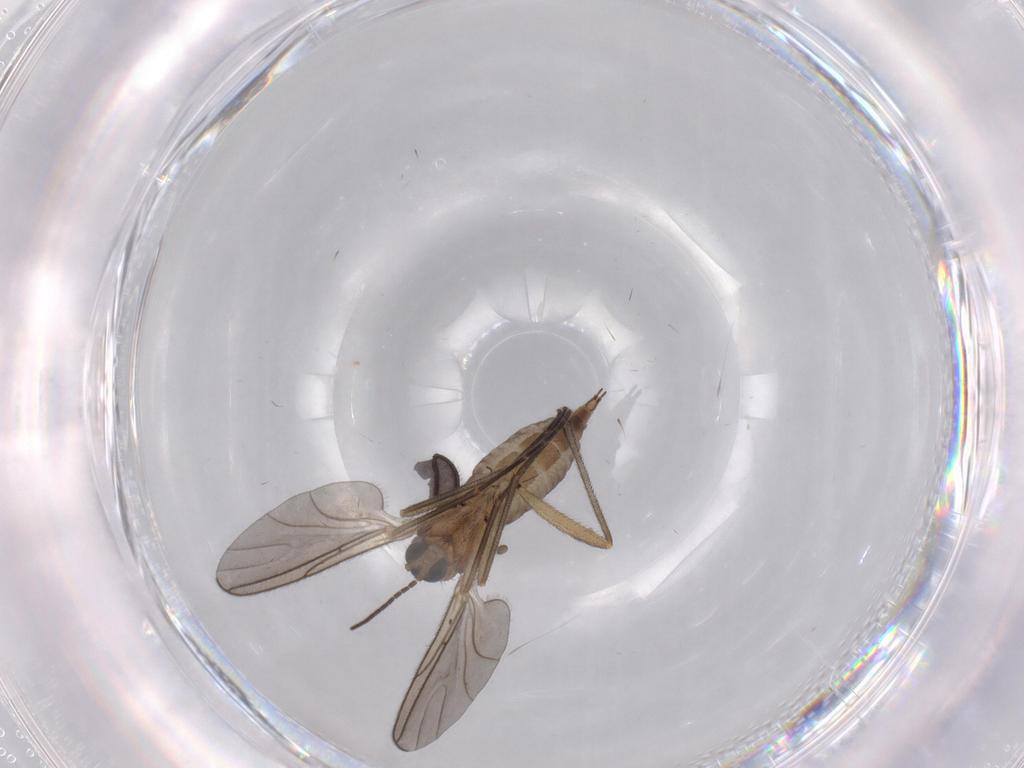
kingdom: Animalia
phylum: Arthropoda
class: Insecta
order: Diptera
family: Sciaridae
